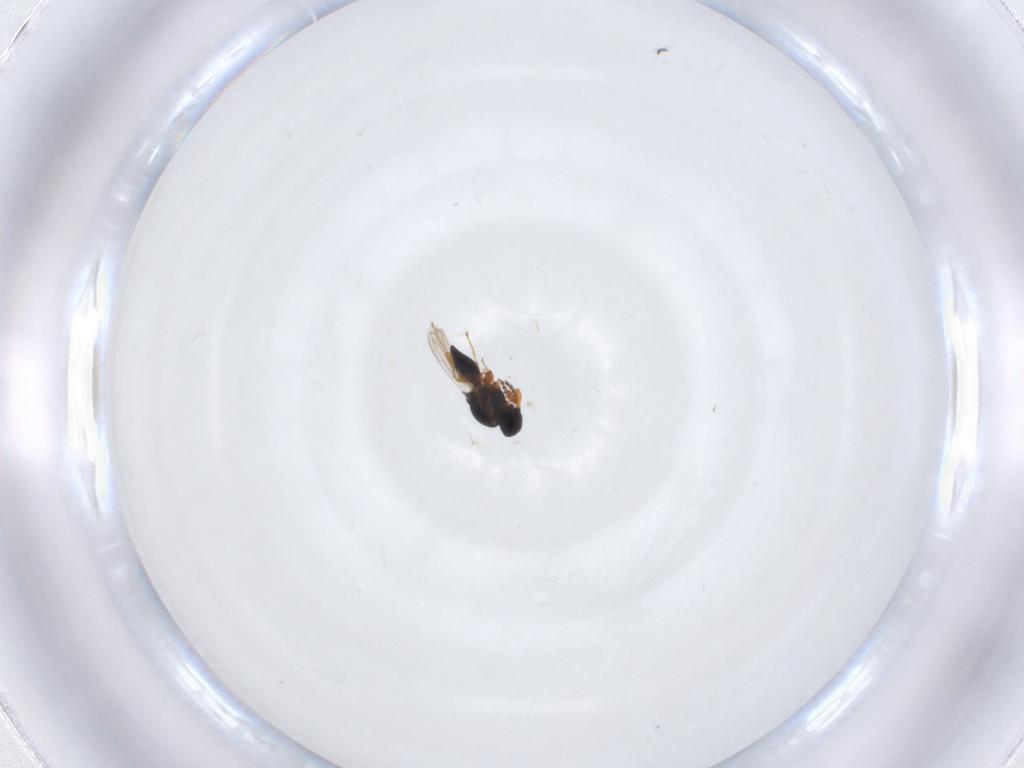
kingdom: Animalia
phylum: Arthropoda
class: Insecta
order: Hymenoptera
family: Platygastridae
